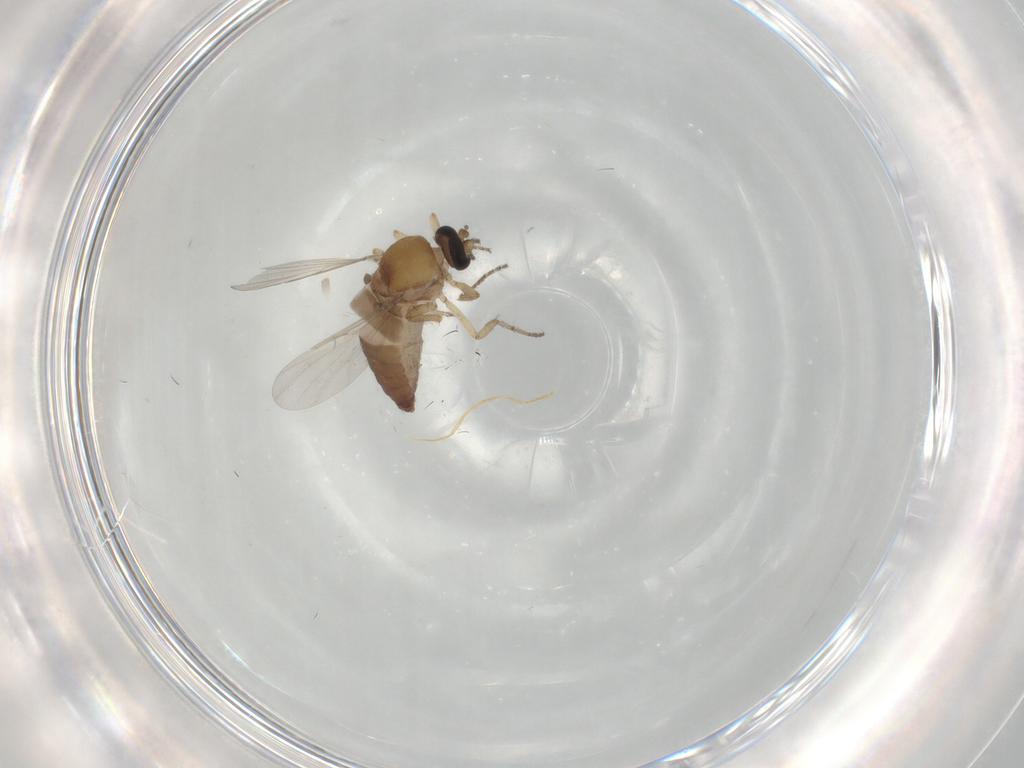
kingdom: Animalia
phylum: Arthropoda
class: Insecta
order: Diptera
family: Ceratopogonidae
